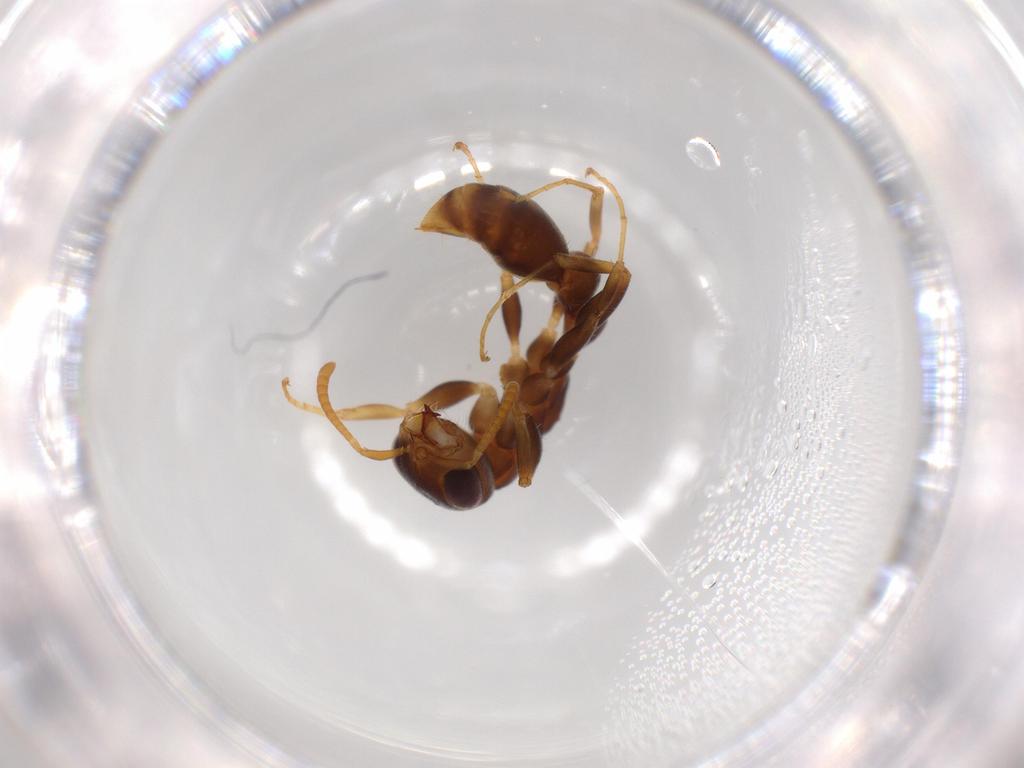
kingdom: Animalia
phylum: Arthropoda
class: Insecta
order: Hymenoptera
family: Formicidae
